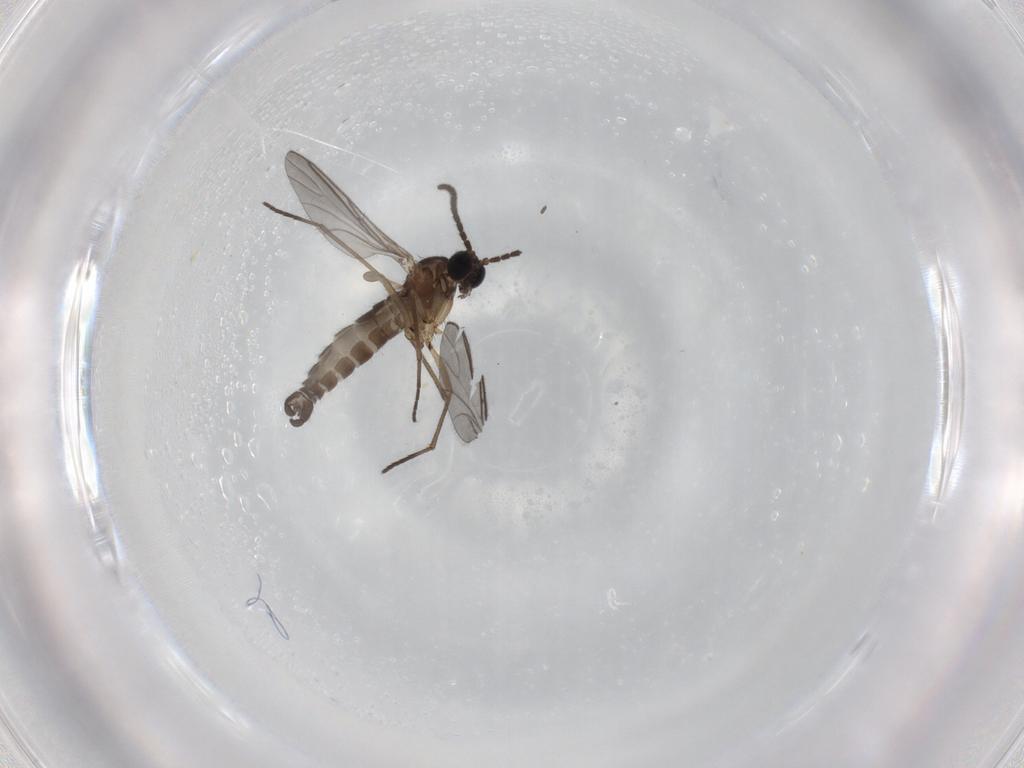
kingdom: Animalia
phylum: Arthropoda
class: Insecta
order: Diptera
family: Sciaridae
